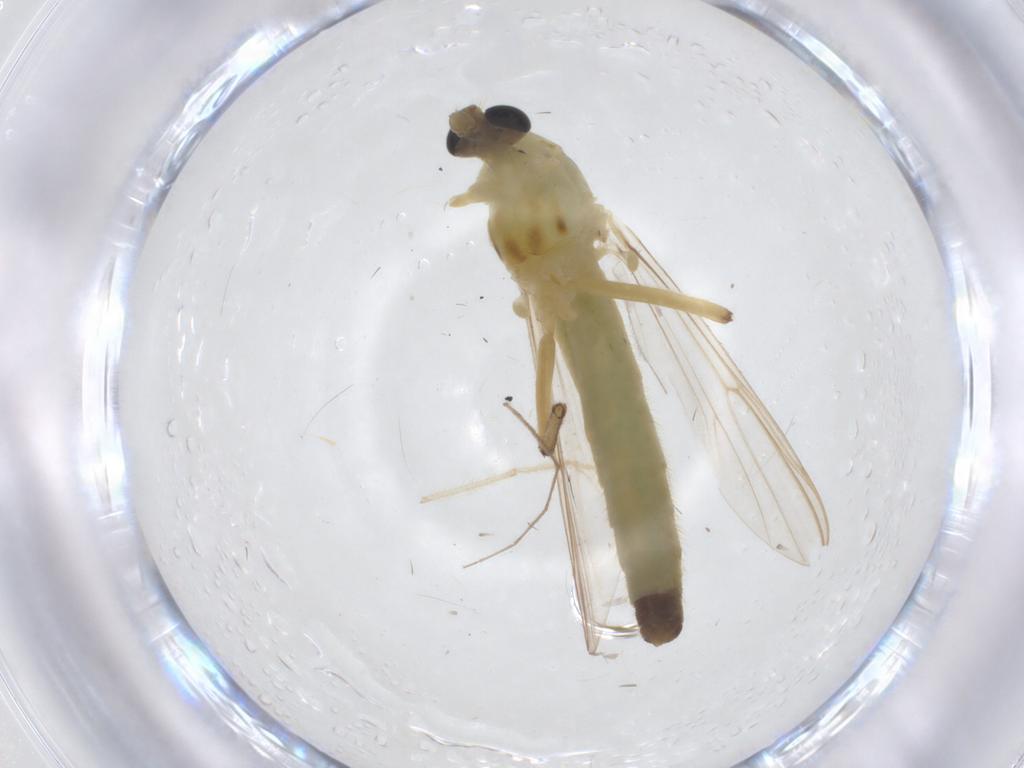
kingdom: Animalia
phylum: Arthropoda
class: Insecta
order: Diptera
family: Chironomidae
